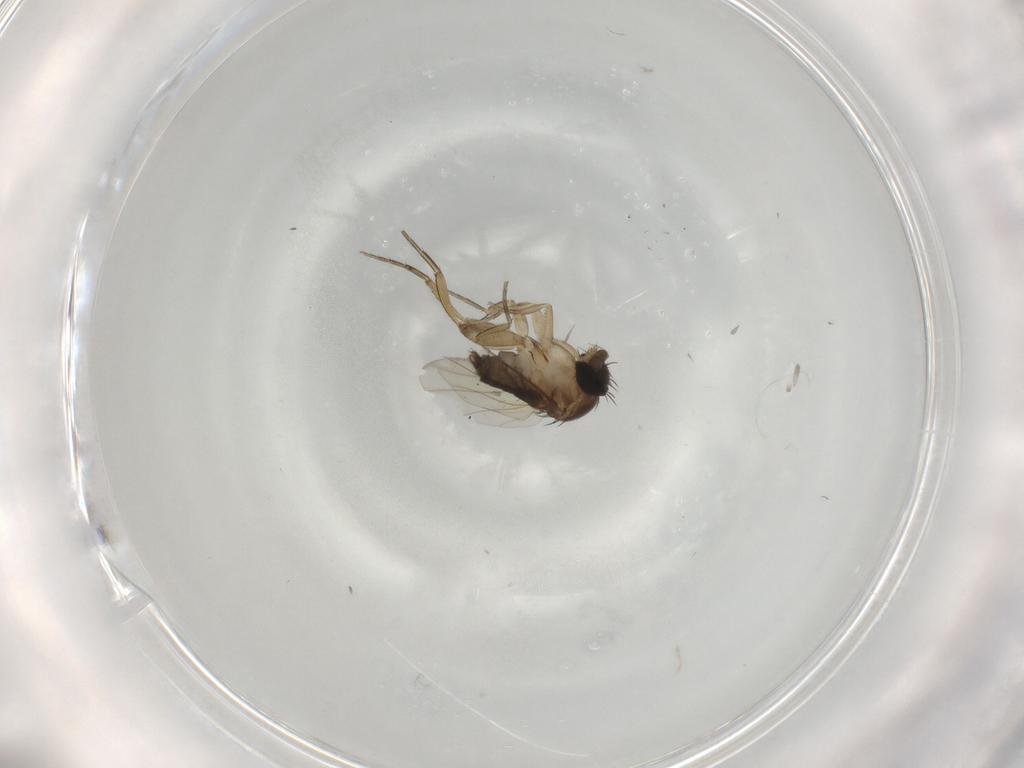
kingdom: Animalia
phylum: Arthropoda
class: Insecta
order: Diptera
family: Phoridae
